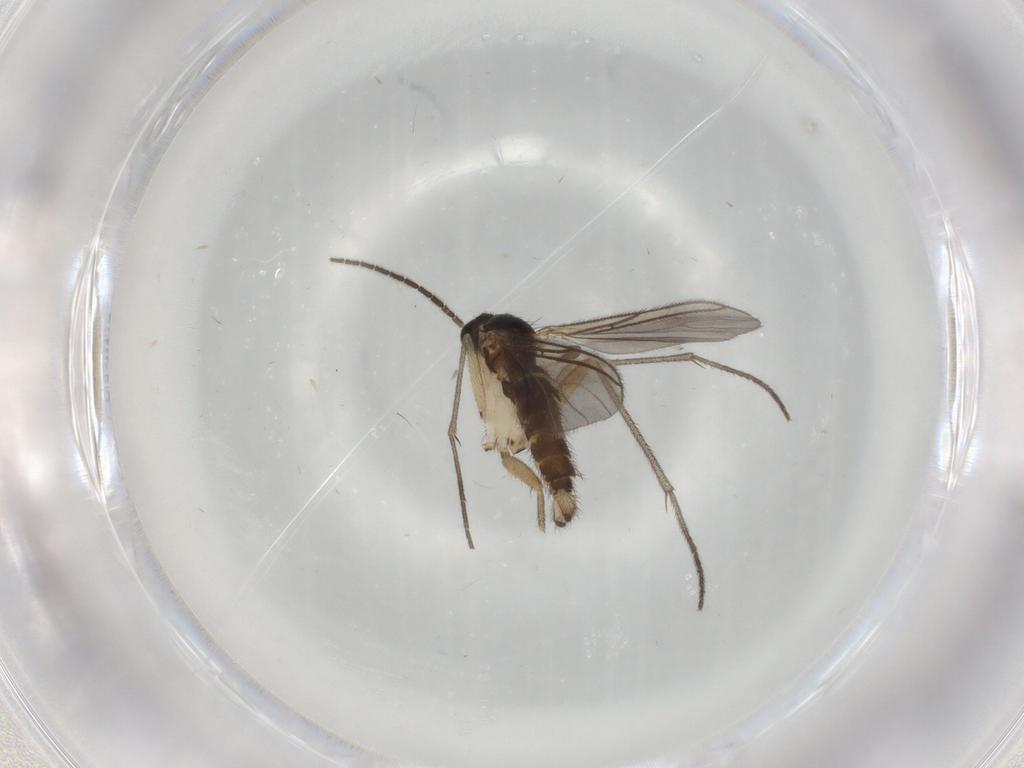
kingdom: Animalia
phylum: Arthropoda
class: Insecta
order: Diptera
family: Sciaridae
